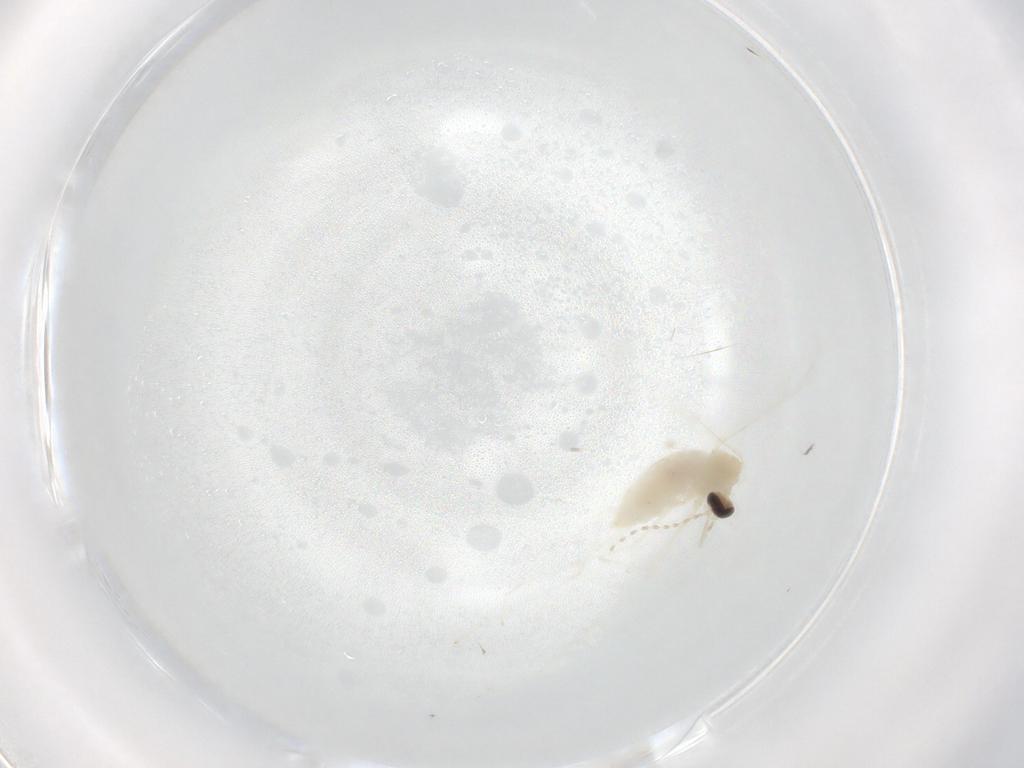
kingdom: Animalia
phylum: Arthropoda
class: Insecta
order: Diptera
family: Cecidomyiidae
